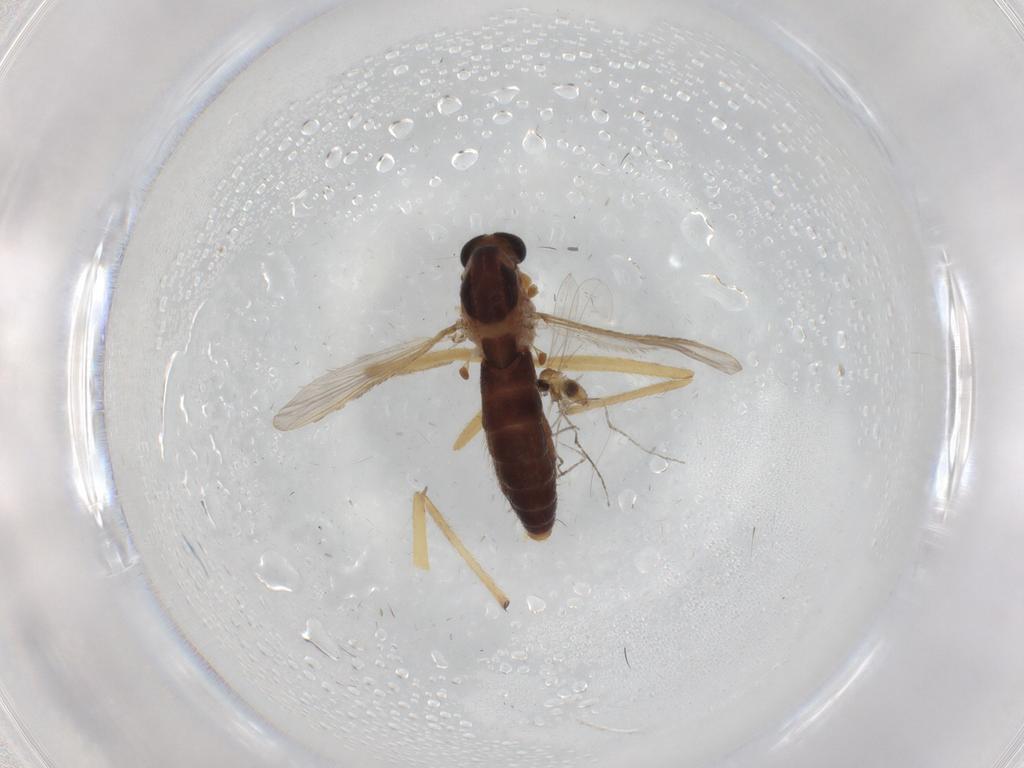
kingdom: Animalia
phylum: Arthropoda
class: Insecta
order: Diptera
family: Chironomidae
